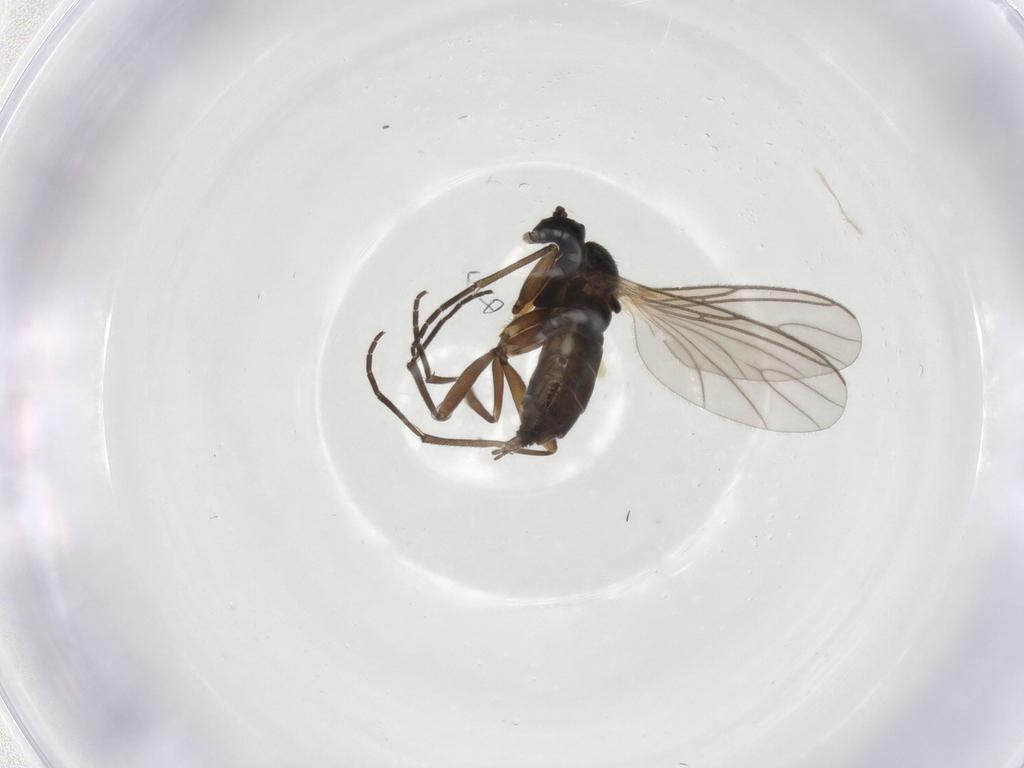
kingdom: Animalia
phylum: Arthropoda
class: Insecta
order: Diptera
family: Sciaridae
